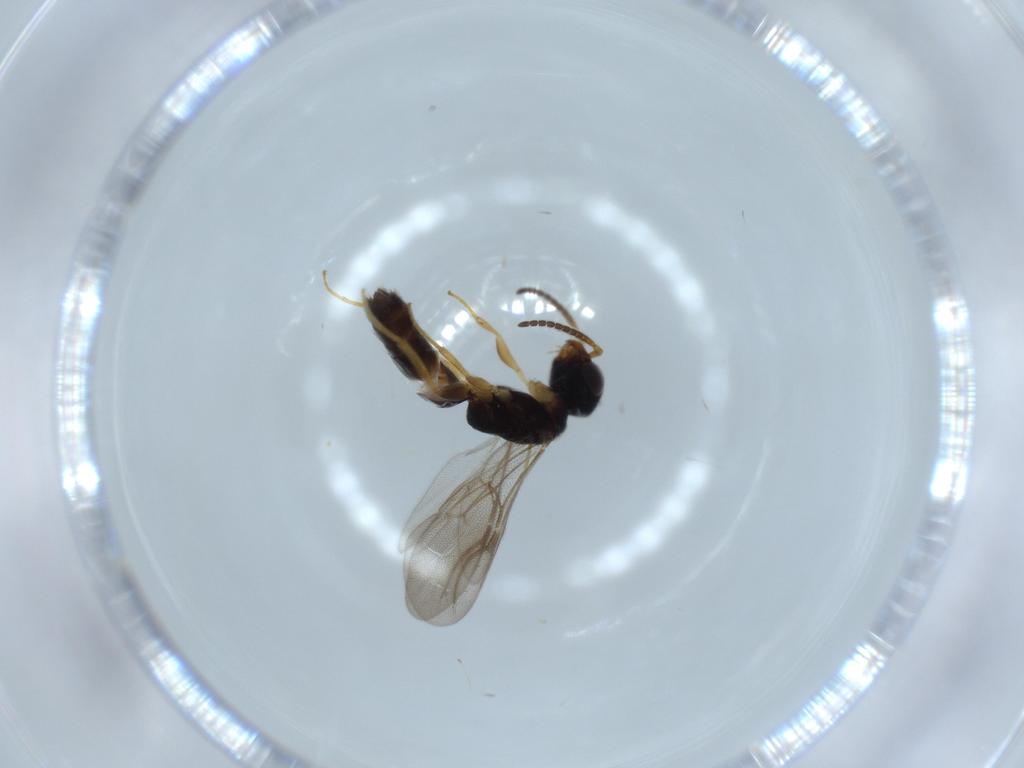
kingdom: Animalia
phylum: Arthropoda
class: Insecta
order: Hymenoptera
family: Bethylidae
